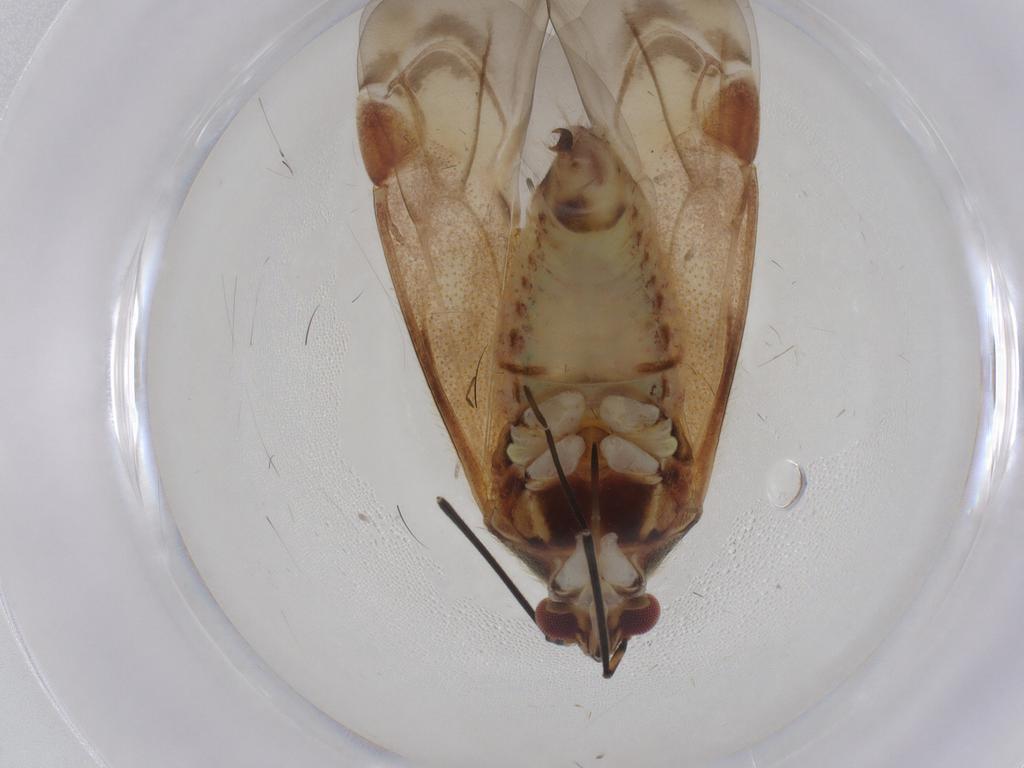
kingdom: Animalia
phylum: Arthropoda
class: Insecta
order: Hemiptera
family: Miridae
